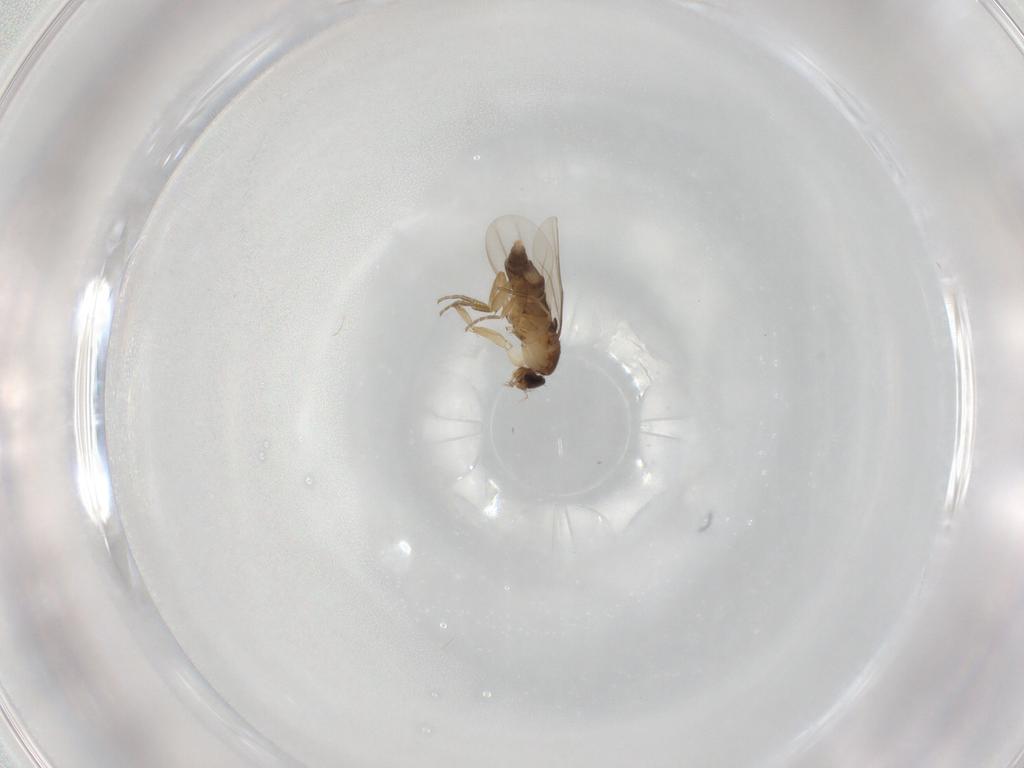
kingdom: Animalia
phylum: Arthropoda
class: Insecta
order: Diptera
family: Phoridae
